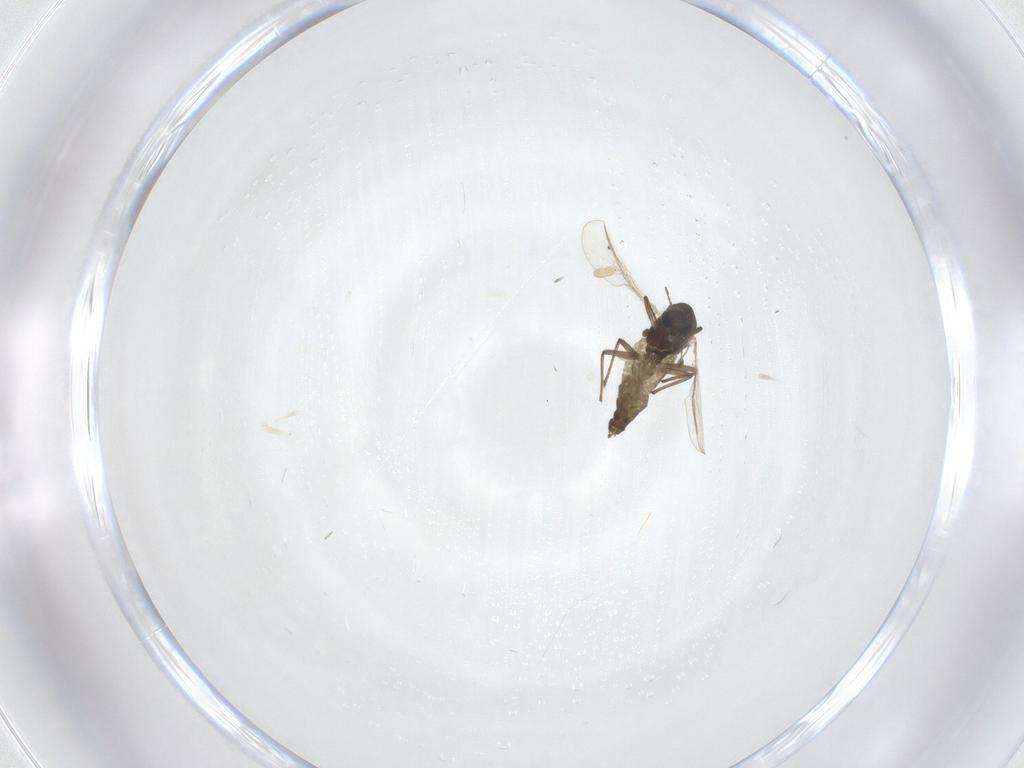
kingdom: Animalia
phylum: Arthropoda
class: Insecta
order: Diptera
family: Chironomidae
